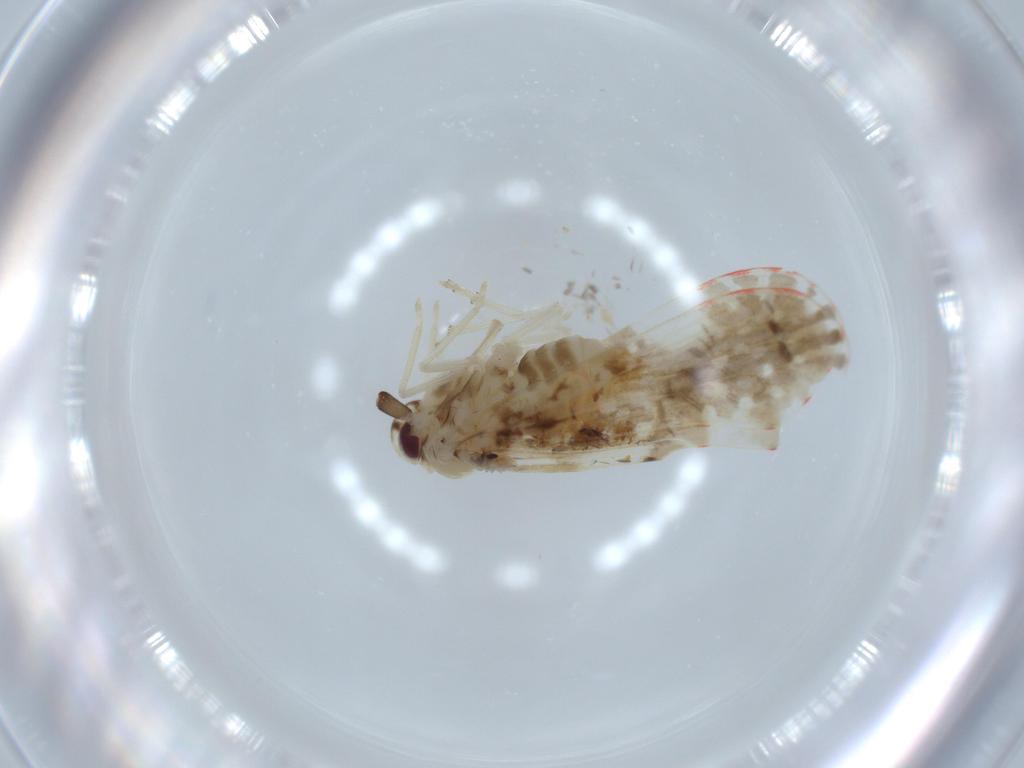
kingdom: Animalia
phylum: Arthropoda
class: Insecta
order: Hemiptera
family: Derbidae
